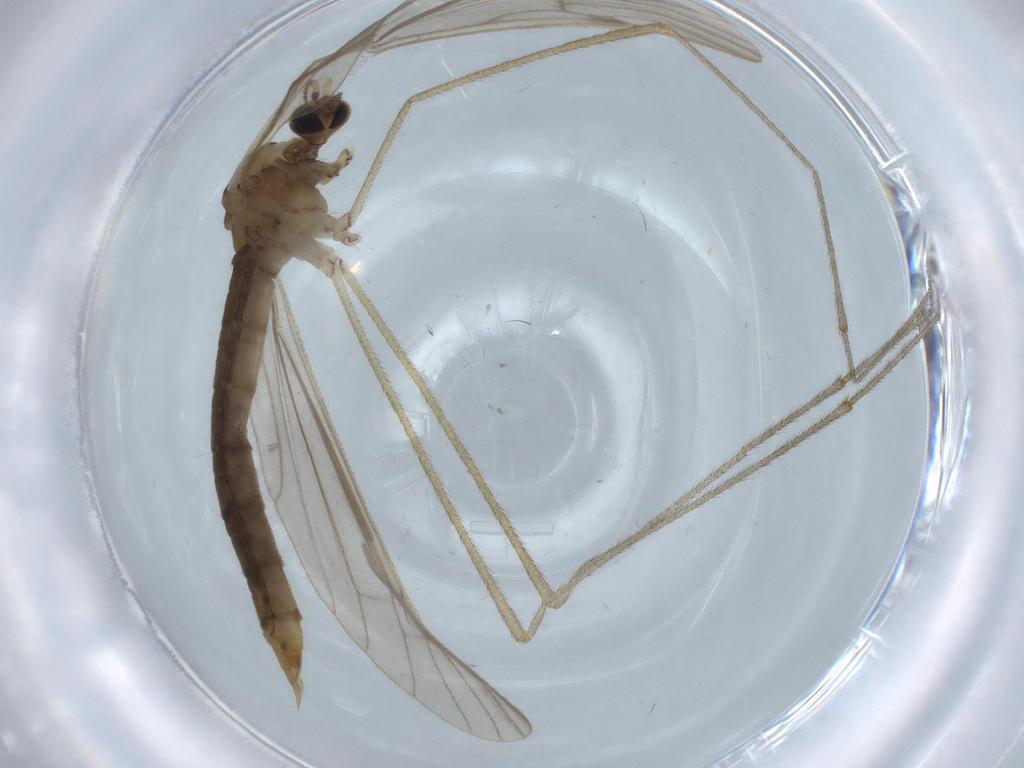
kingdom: Animalia
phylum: Arthropoda
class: Insecta
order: Diptera
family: Limoniidae
